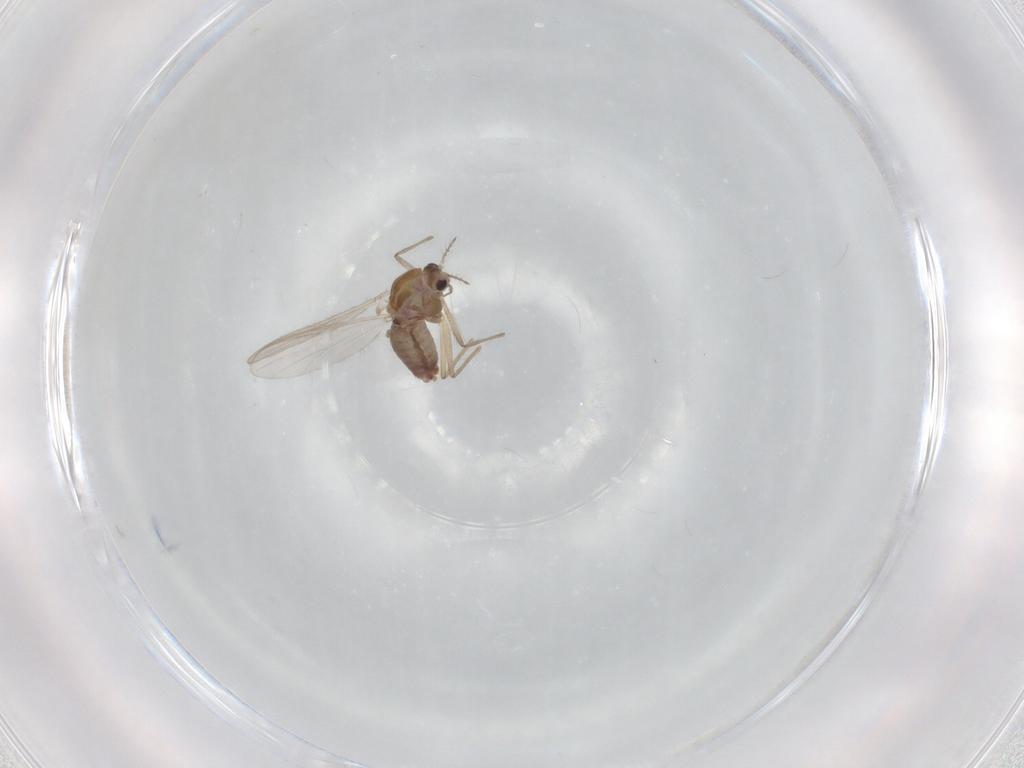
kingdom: Animalia
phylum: Arthropoda
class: Insecta
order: Diptera
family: Chironomidae
